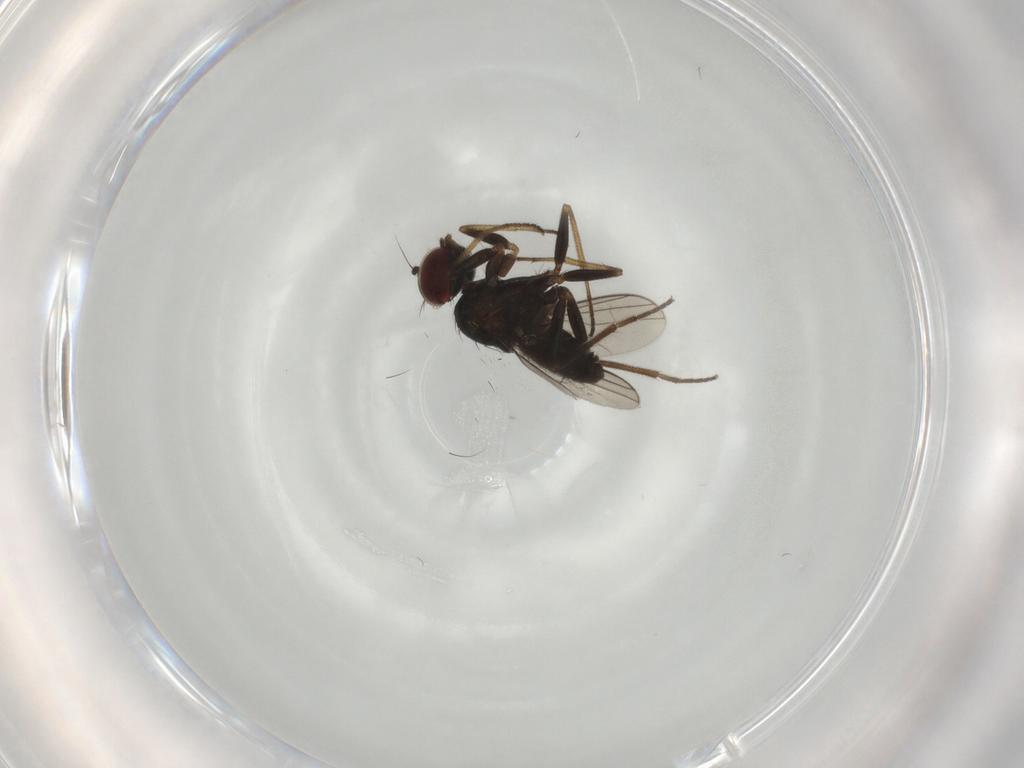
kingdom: Animalia
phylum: Arthropoda
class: Insecta
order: Diptera
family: Dolichopodidae
